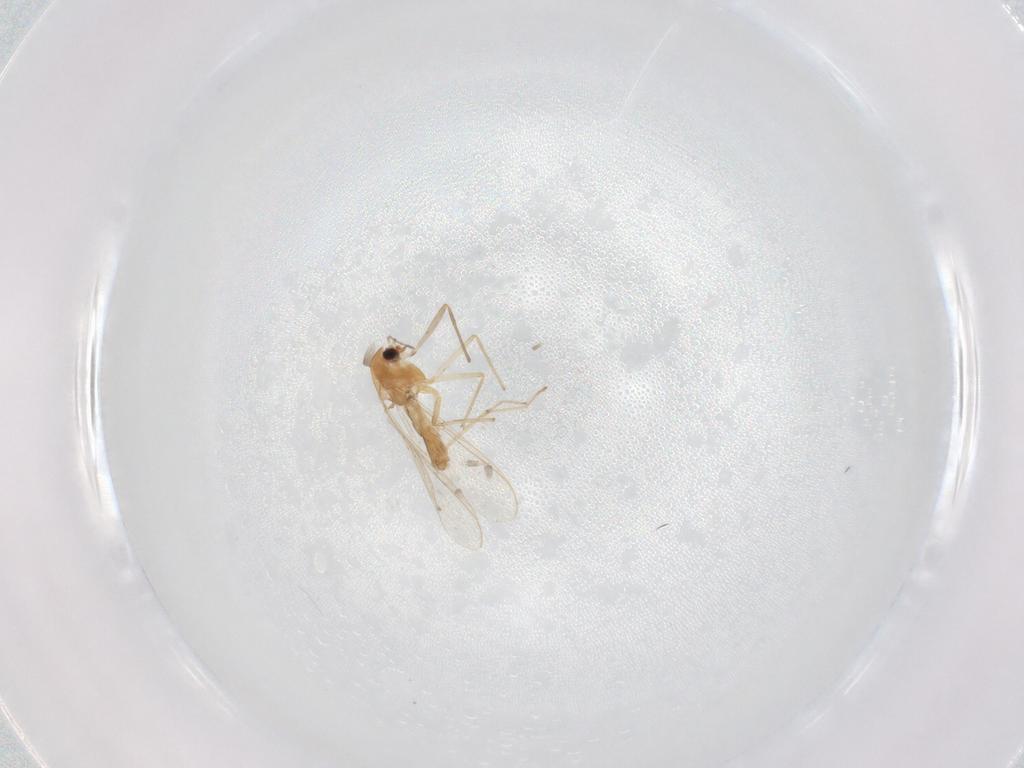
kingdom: Animalia
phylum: Arthropoda
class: Insecta
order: Diptera
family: Chironomidae
